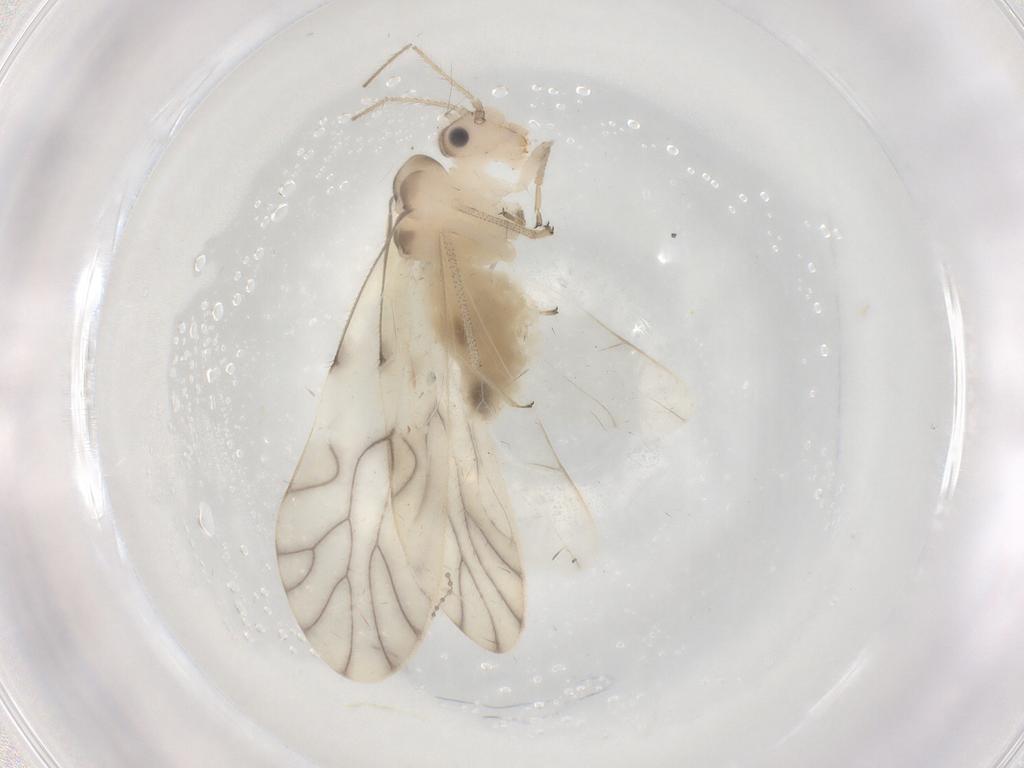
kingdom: Animalia
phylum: Arthropoda
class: Insecta
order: Psocodea
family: Caeciliusidae
